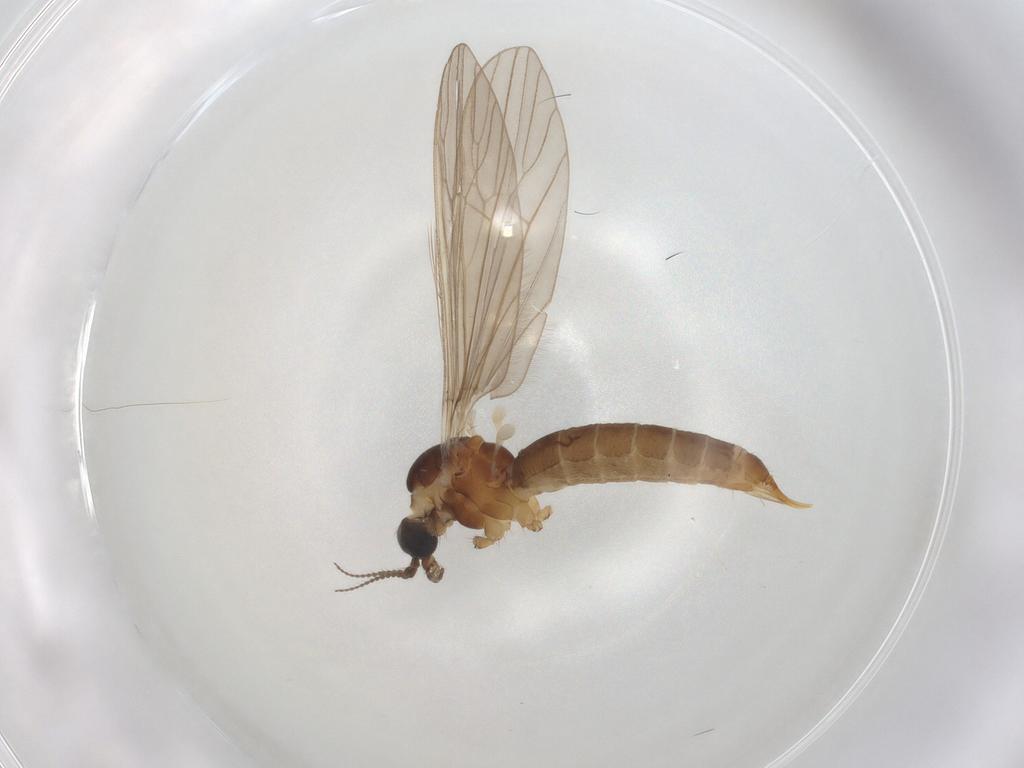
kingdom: Animalia
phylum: Arthropoda
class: Insecta
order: Diptera
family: Limoniidae
